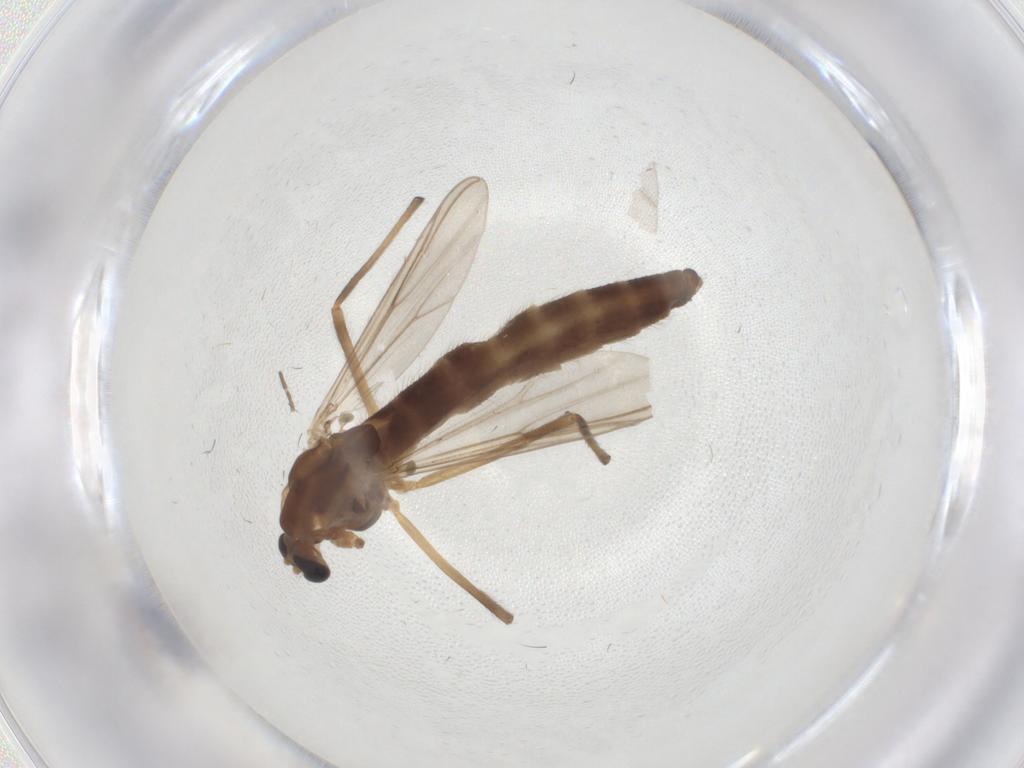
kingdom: Animalia
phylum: Arthropoda
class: Insecta
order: Diptera
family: Chironomidae
